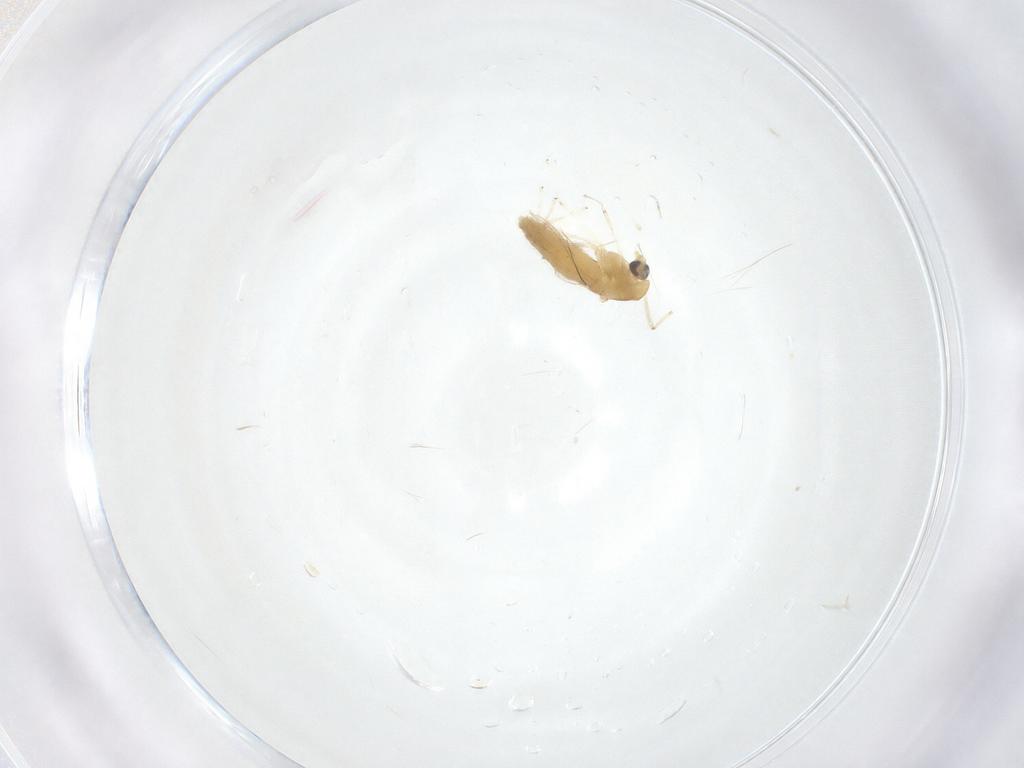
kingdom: Animalia
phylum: Arthropoda
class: Insecta
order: Diptera
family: Chironomidae
